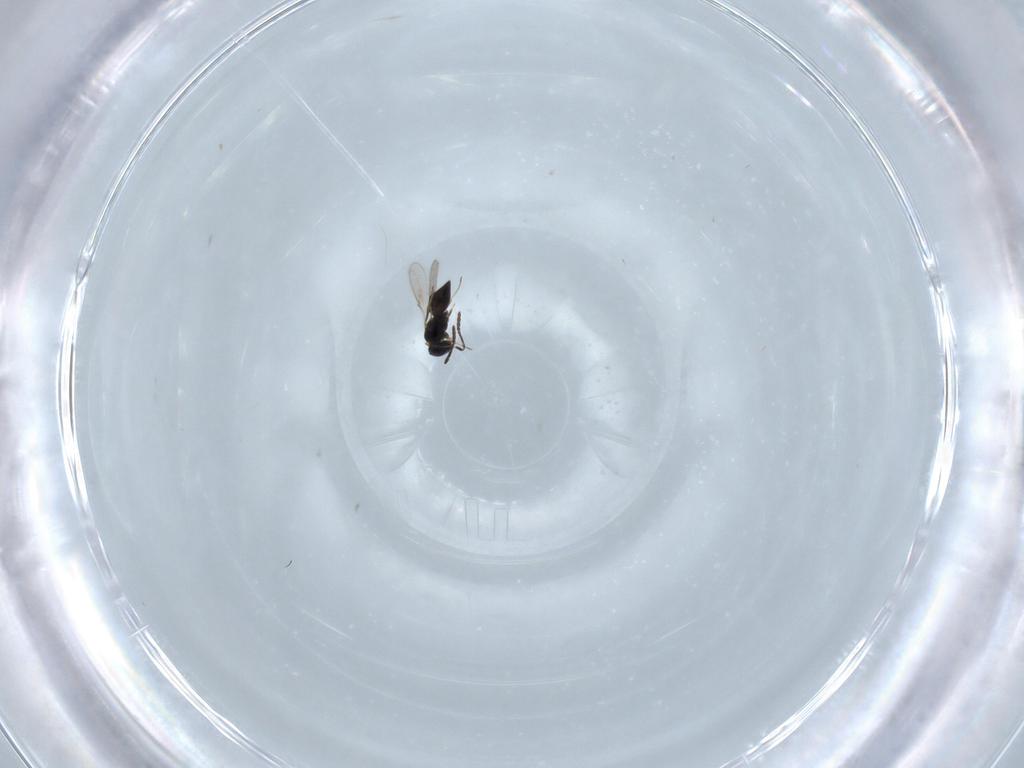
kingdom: Animalia
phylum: Arthropoda
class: Insecta
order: Hymenoptera
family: Scelionidae
